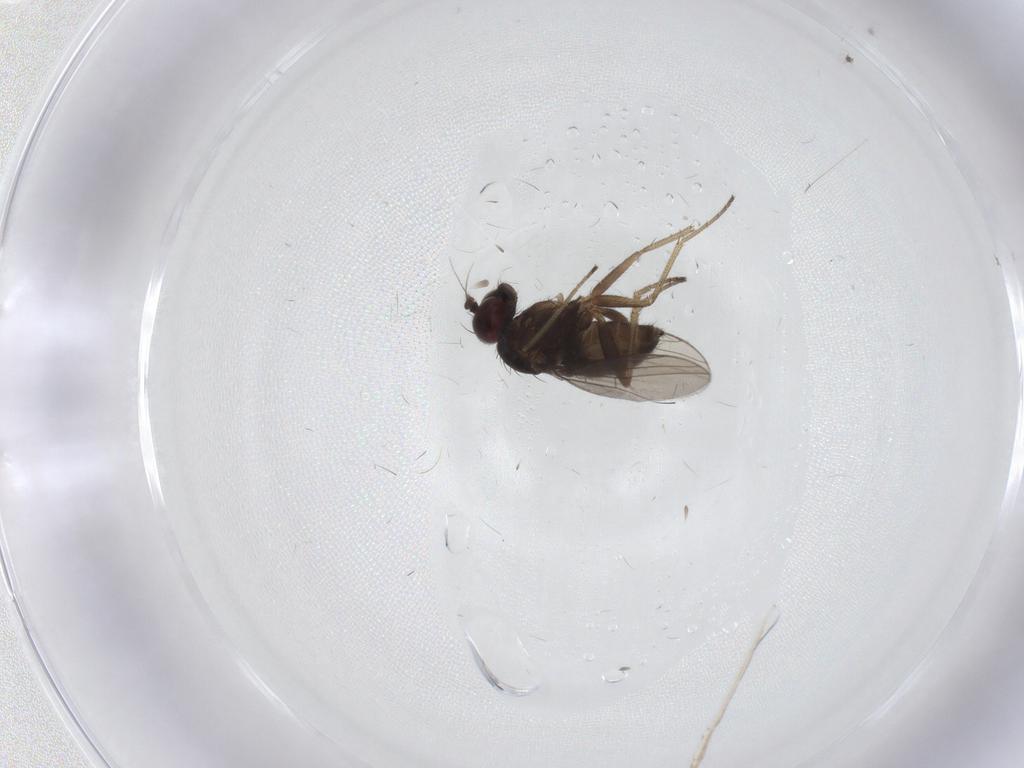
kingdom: Animalia
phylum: Arthropoda
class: Insecta
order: Diptera
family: Dolichopodidae
